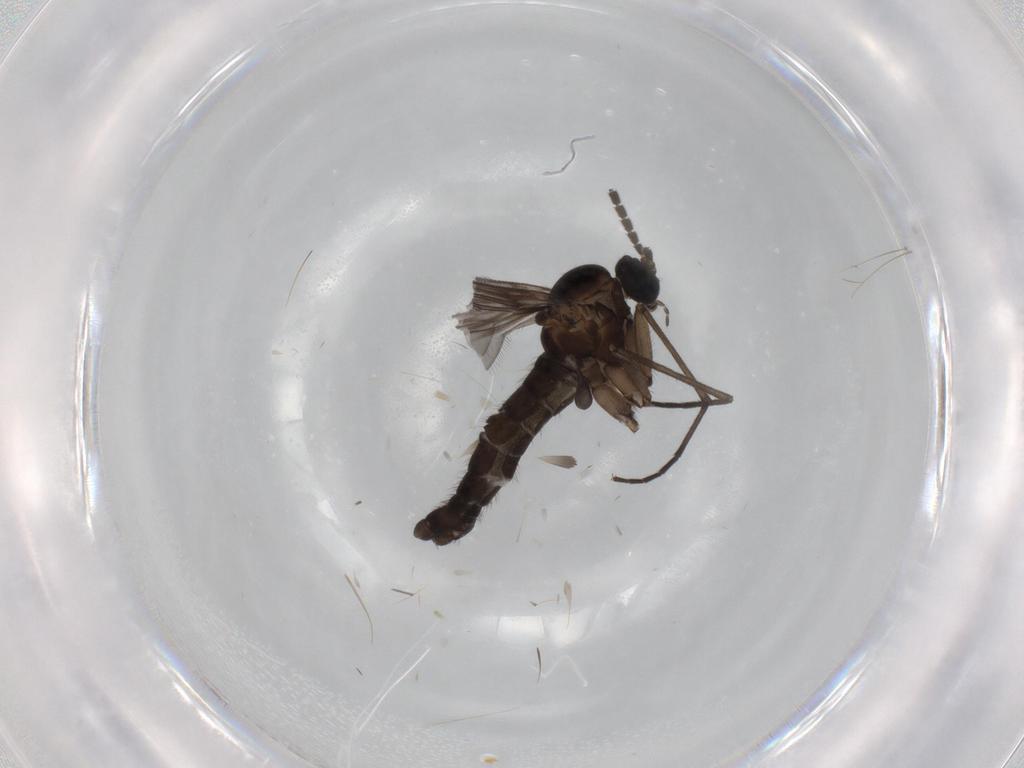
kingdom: Animalia
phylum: Arthropoda
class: Insecta
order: Diptera
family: Sciaridae
